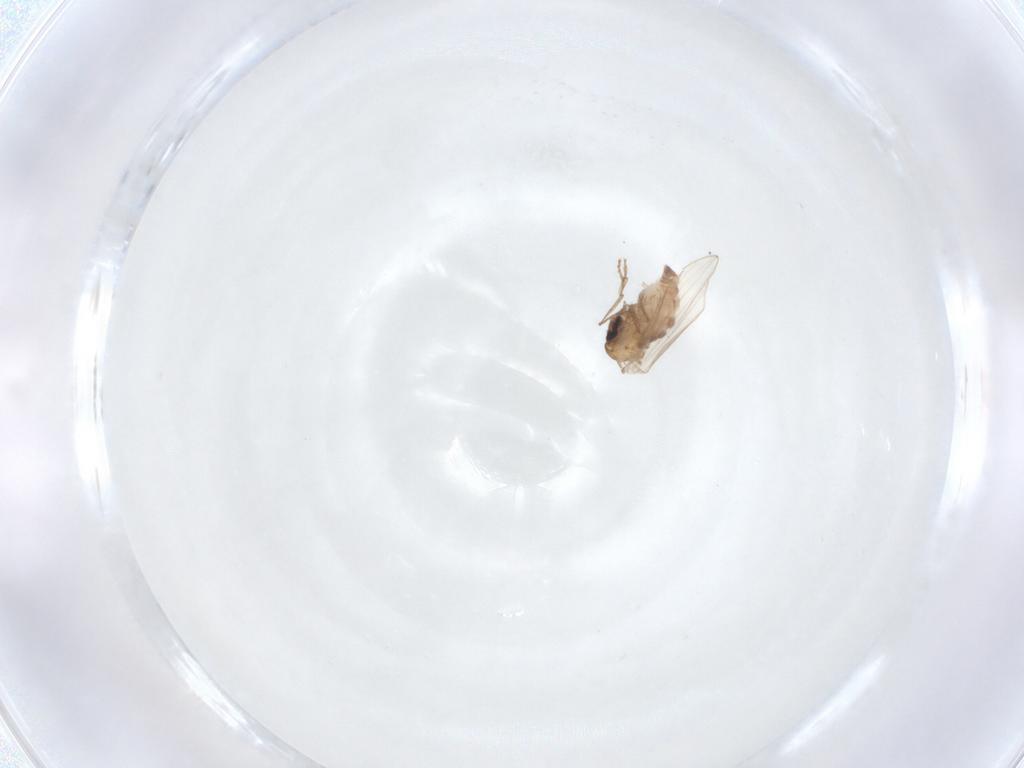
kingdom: Animalia
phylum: Arthropoda
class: Insecta
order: Diptera
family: Psychodidae
